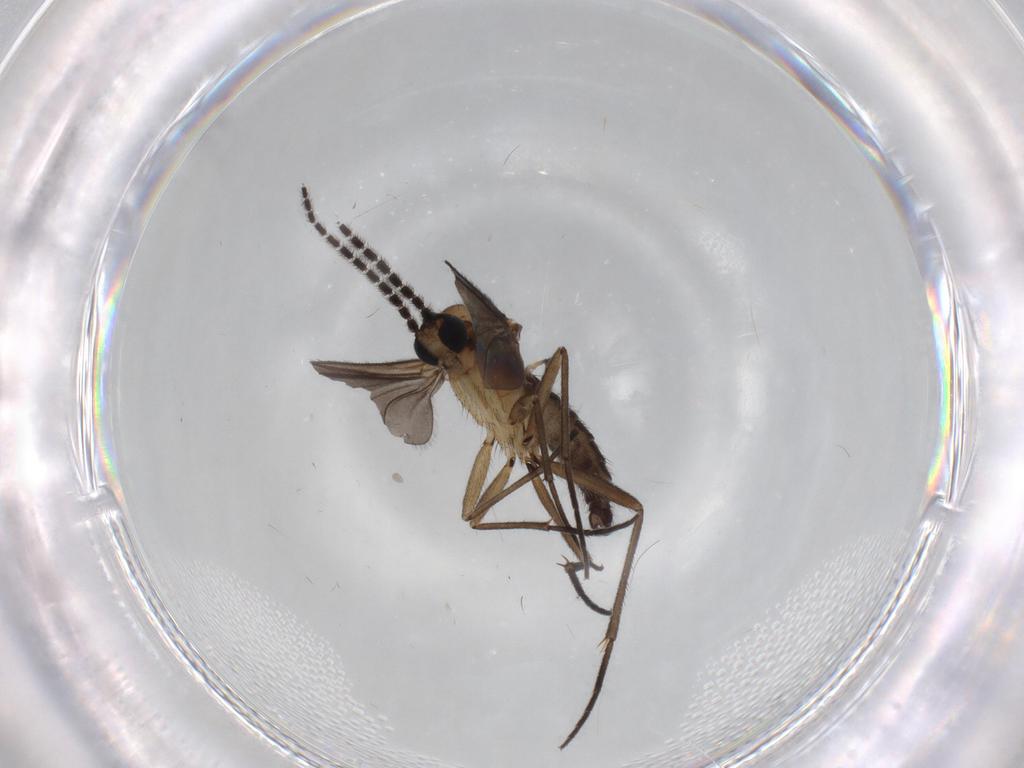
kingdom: Animalia
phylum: Arthropoda
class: Insecta
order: Diptera
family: Sciaridae
